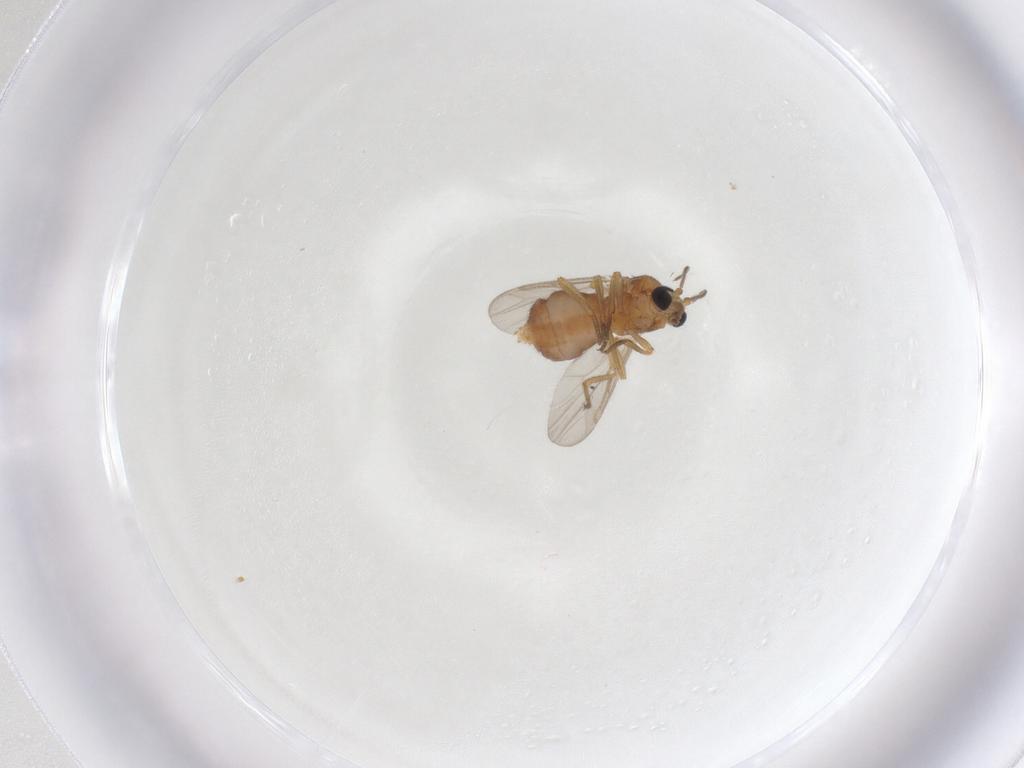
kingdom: Animalia
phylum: Arthropoda
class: Insecta
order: Diptera
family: Ceratopogonidae
